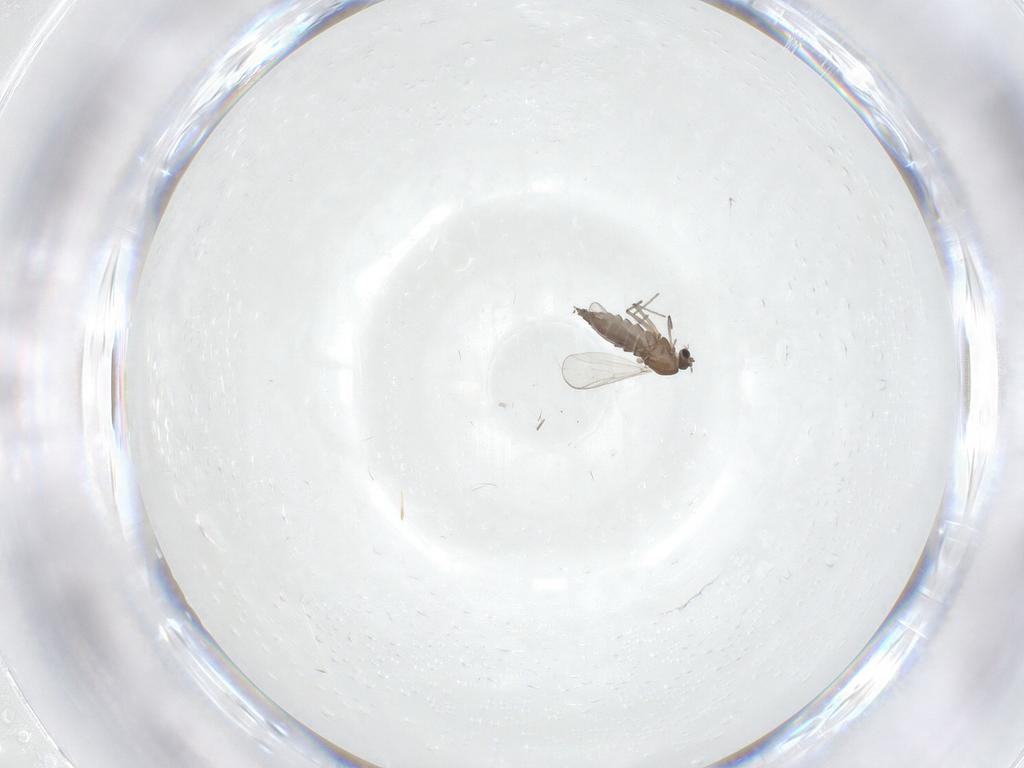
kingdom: Animalia
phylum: Arthropoda
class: Insecta
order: Diptera
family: Chironomidae
